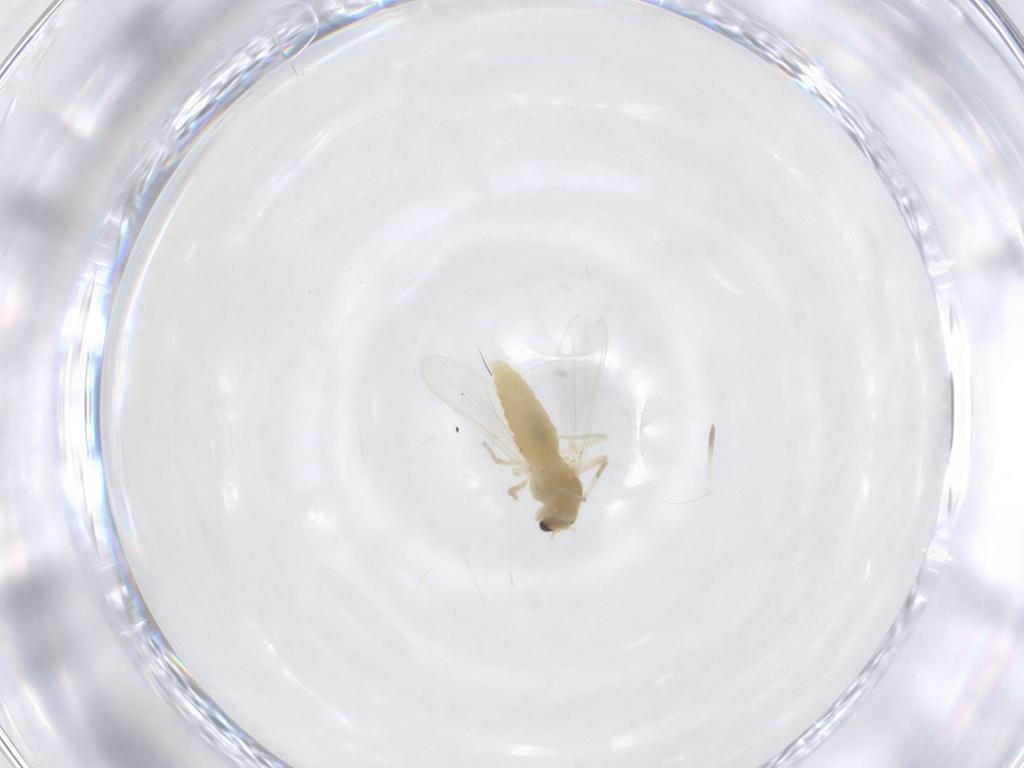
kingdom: Animalia
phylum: Arthropoda
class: Insecta
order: Diptera
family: Chironomidae
